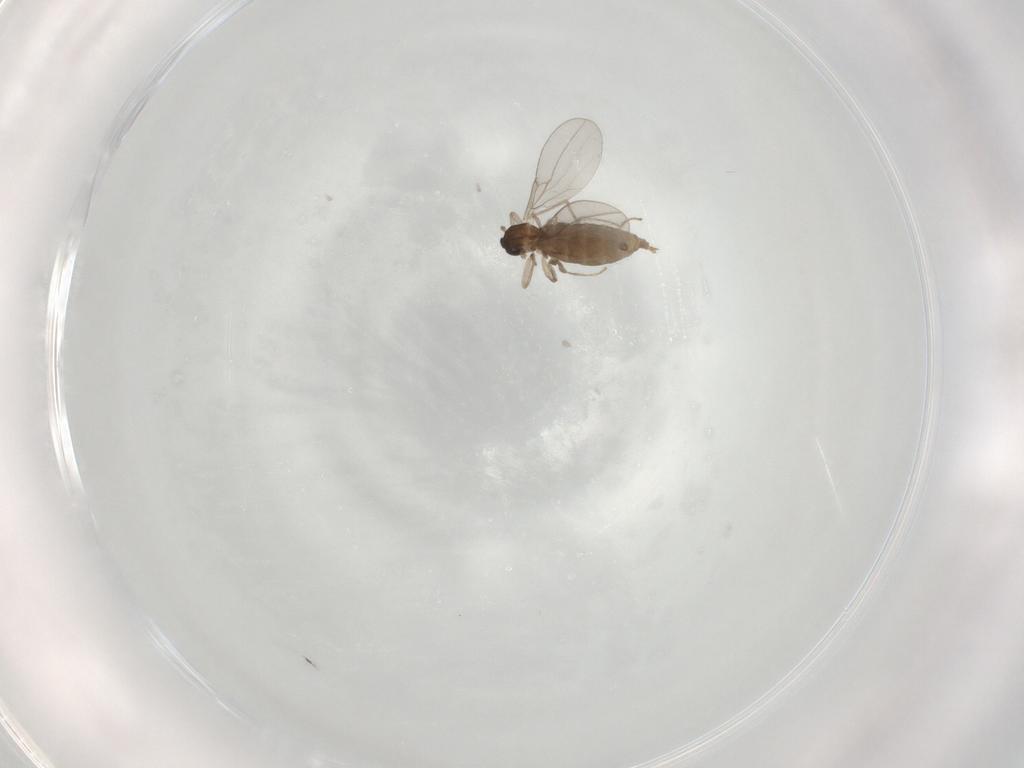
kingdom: Animalia
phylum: Arthropoda
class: Insecta
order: Diptera
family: Cecidomyiidae
